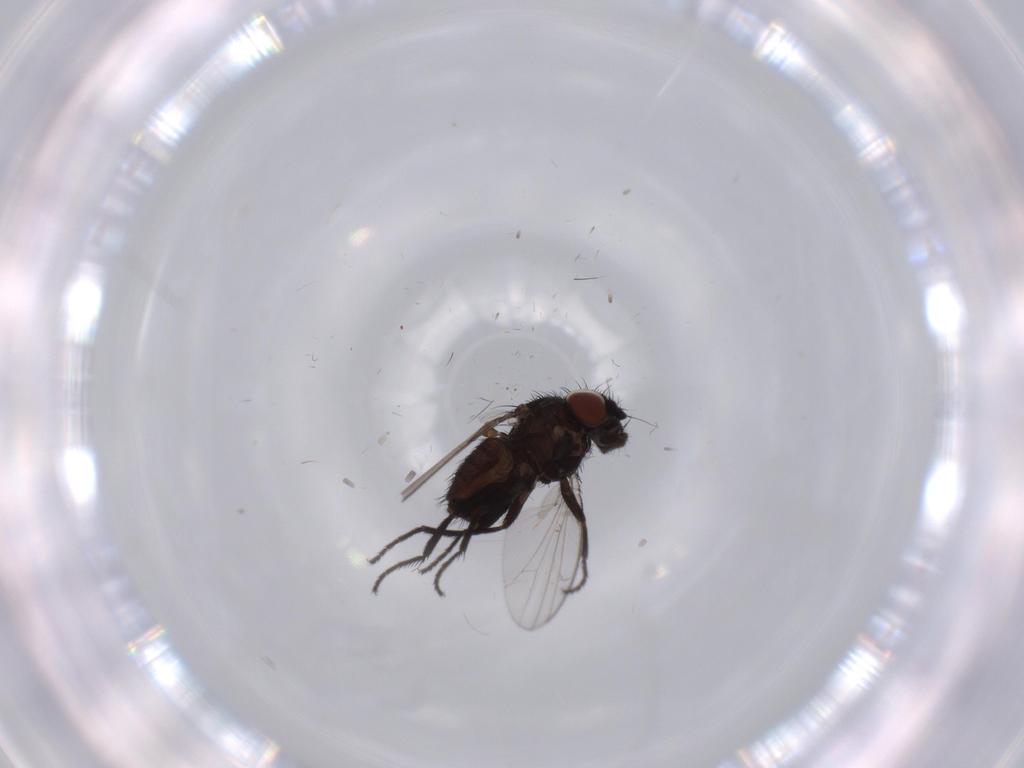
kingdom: Animalia
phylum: Arthropoda
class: Insecta
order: Diptera
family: Milichiidae
